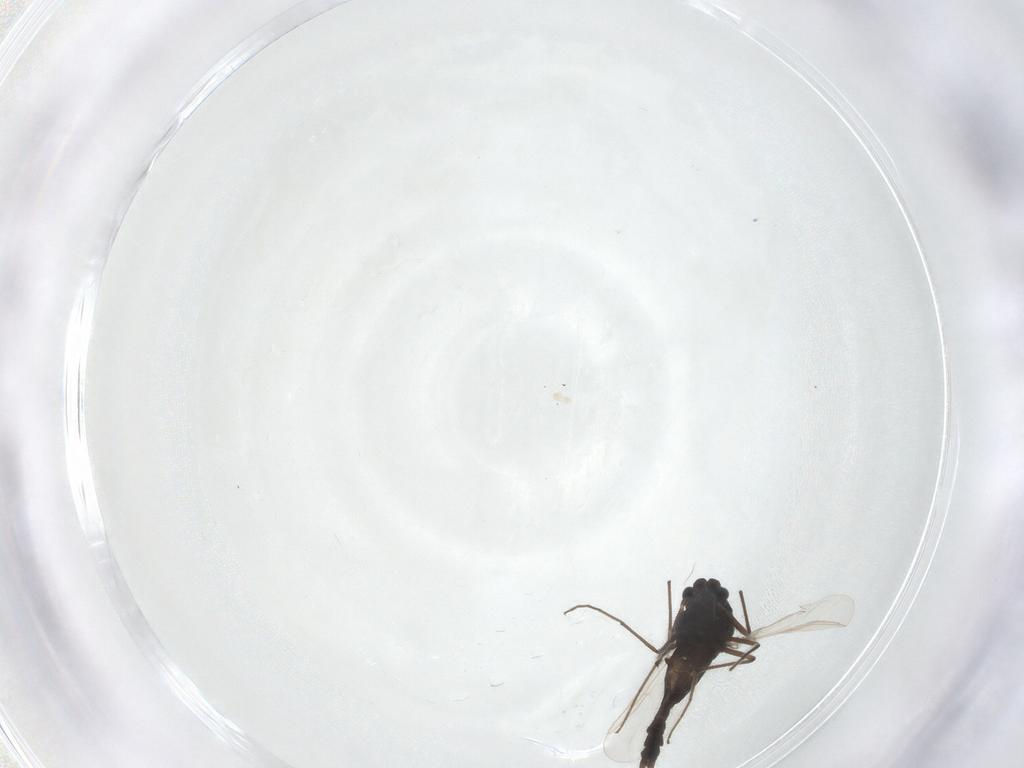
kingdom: Animalia
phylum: Arthropoda
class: Insecta
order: Diptera
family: Chironomidae
